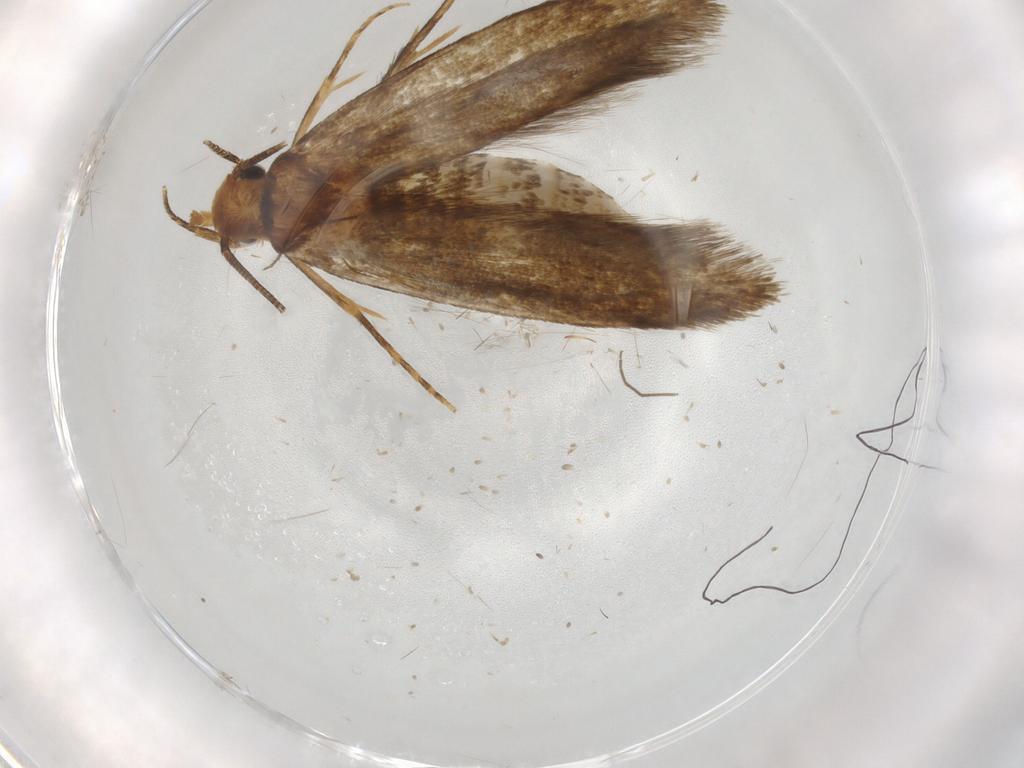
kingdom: Animalia
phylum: Arthropoda
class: Insecta
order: Lepidoptera
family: Tineidae
